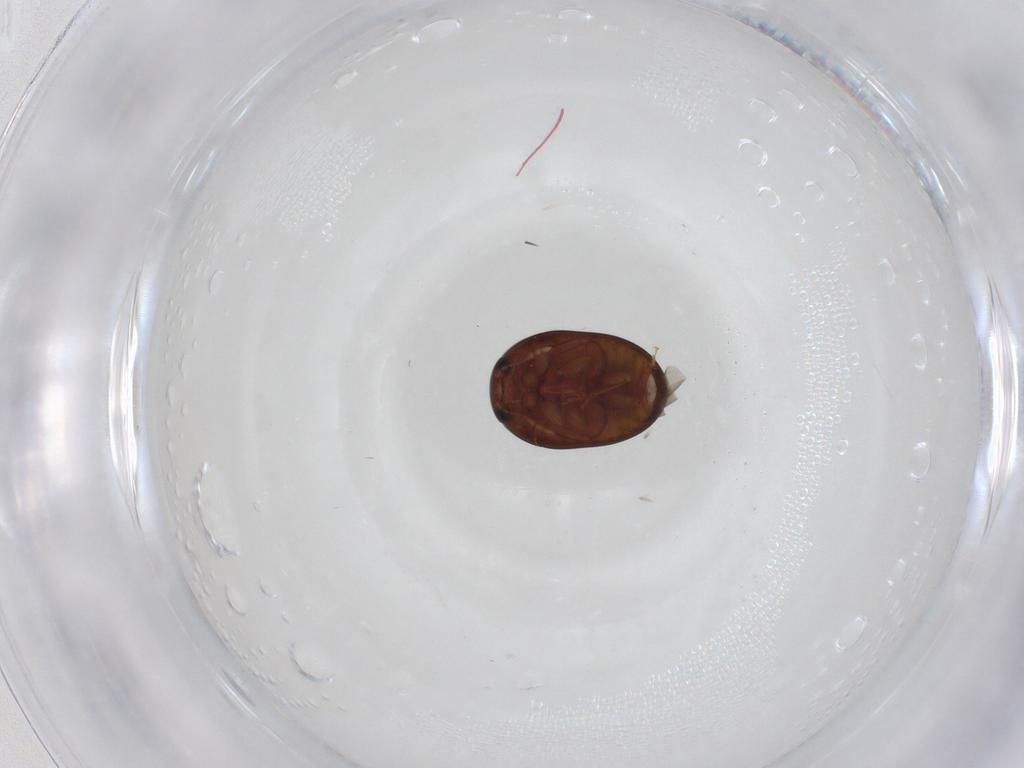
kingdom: Animalia
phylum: Arthropoda
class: Insecta
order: Coleoptera
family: Phalacridae
